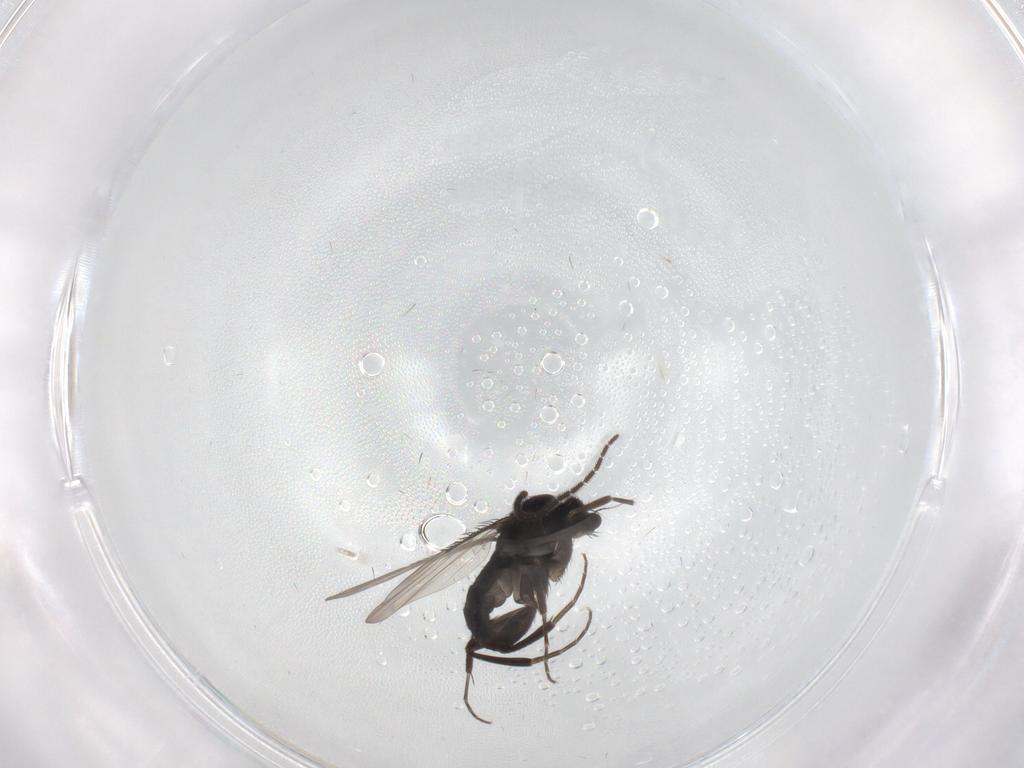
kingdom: Animalia
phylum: Arthropoda
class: Insecta
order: Diptera
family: Phoridae
